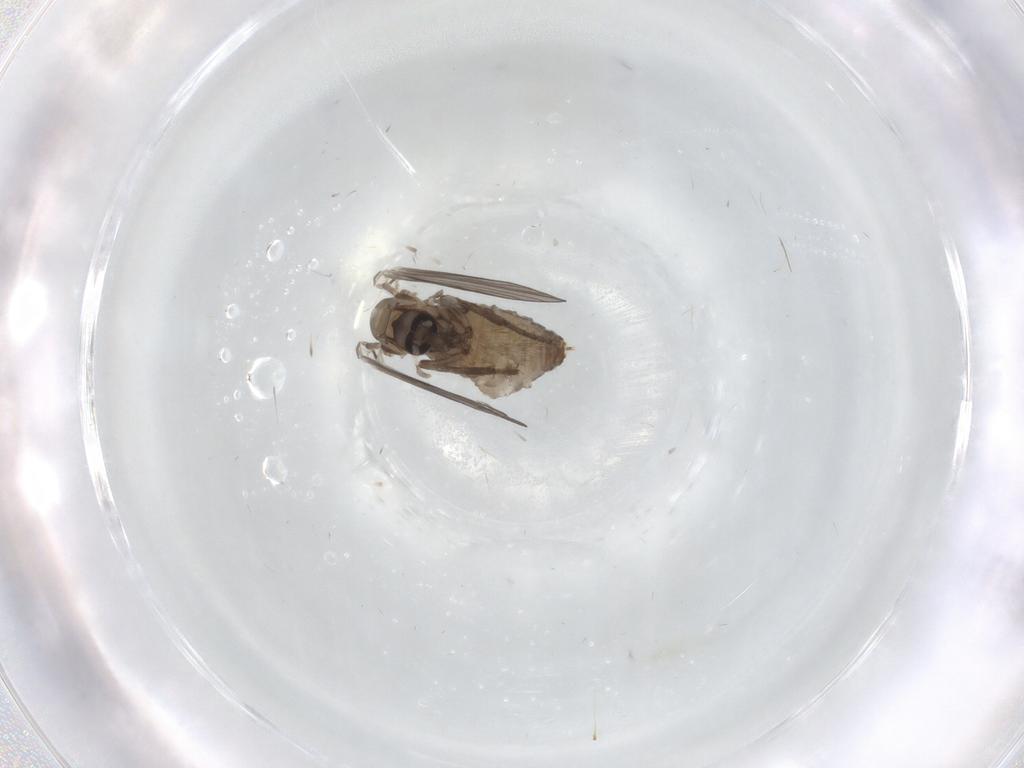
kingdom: Animalia
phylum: Arthropoda
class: Insecta
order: Diptera
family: Psychodidae
